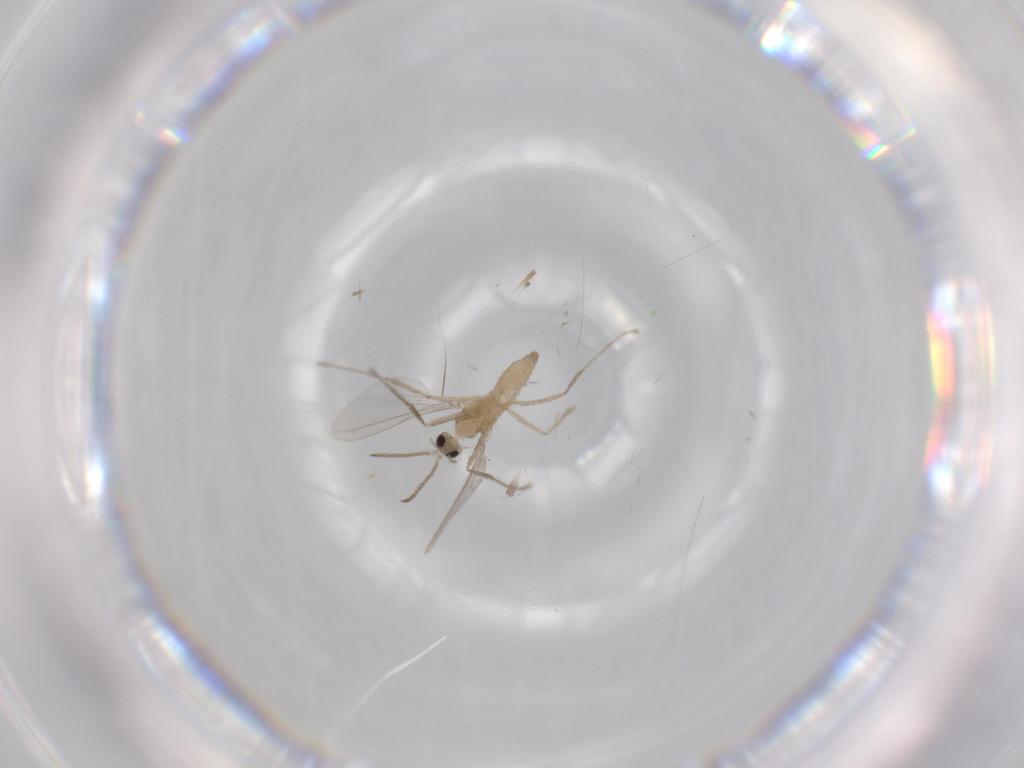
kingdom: Animalia
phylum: Arthropoda
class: Insecta
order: Diptera
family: Cecidomyiidae
